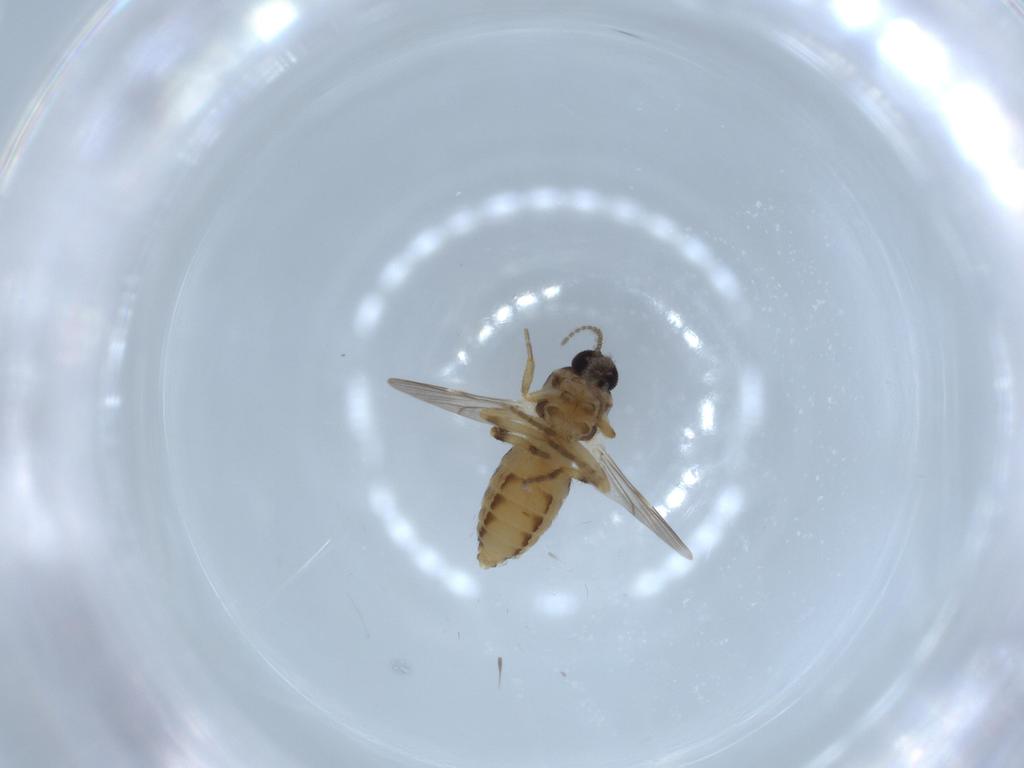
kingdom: Animalia
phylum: Arthropoda
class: Insecta
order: Diptera
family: Ceratopogonidae
